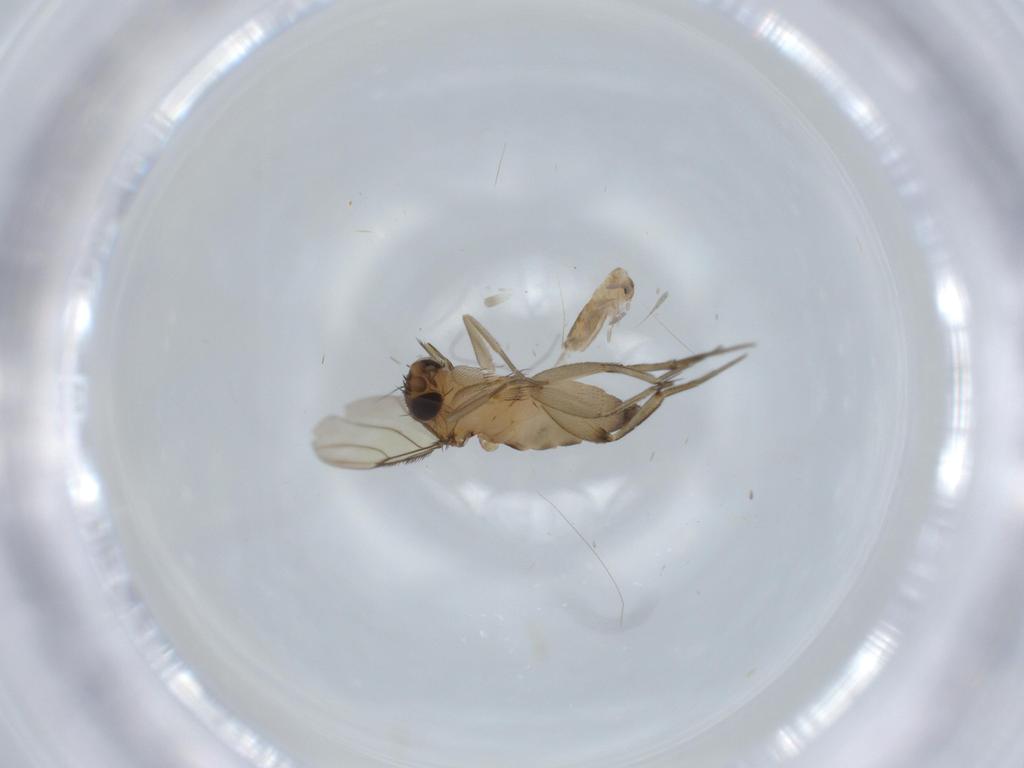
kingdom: Animalia
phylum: Arthropoda
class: Insecta
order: Diptera
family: Phoridae
